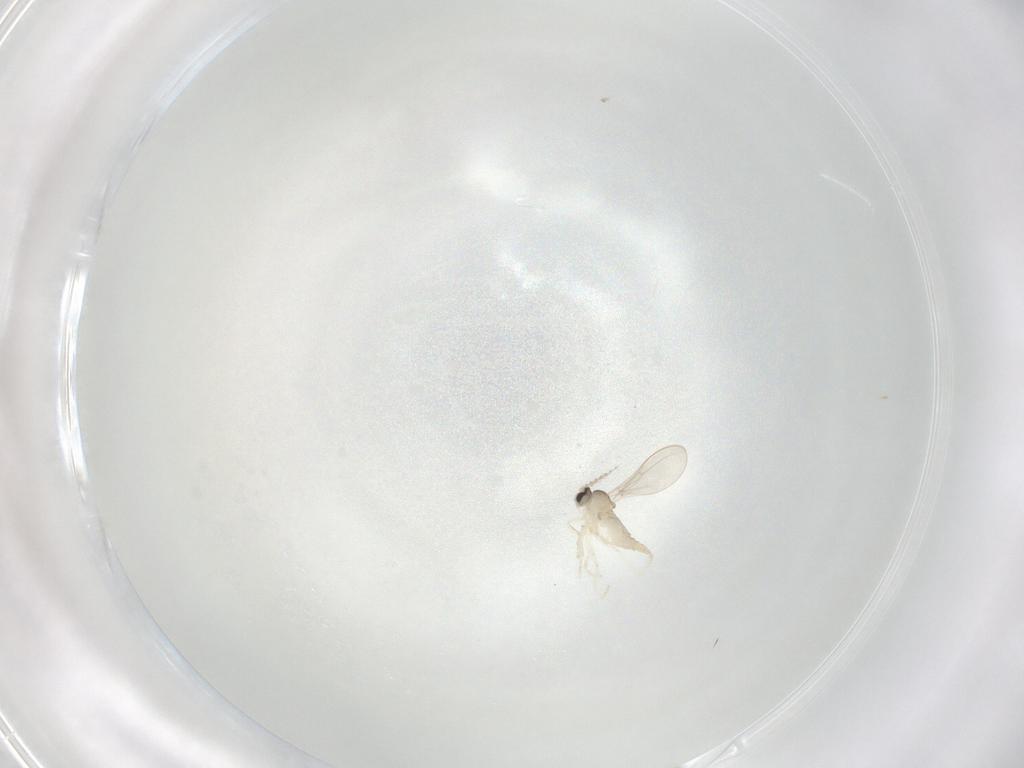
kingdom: Animalia
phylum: Arthropoda
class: Insecta
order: Diptera
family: Cecidomyiidae
